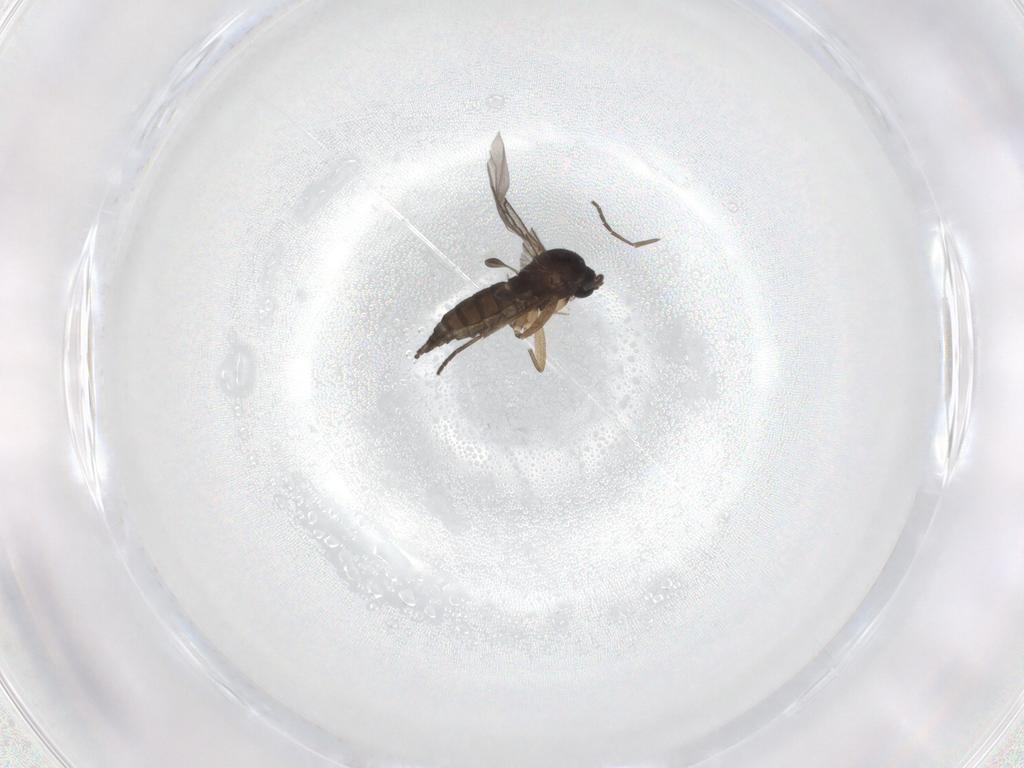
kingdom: Animalia
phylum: Arthropoda
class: Insecta
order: Diptera
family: Sciaridae
